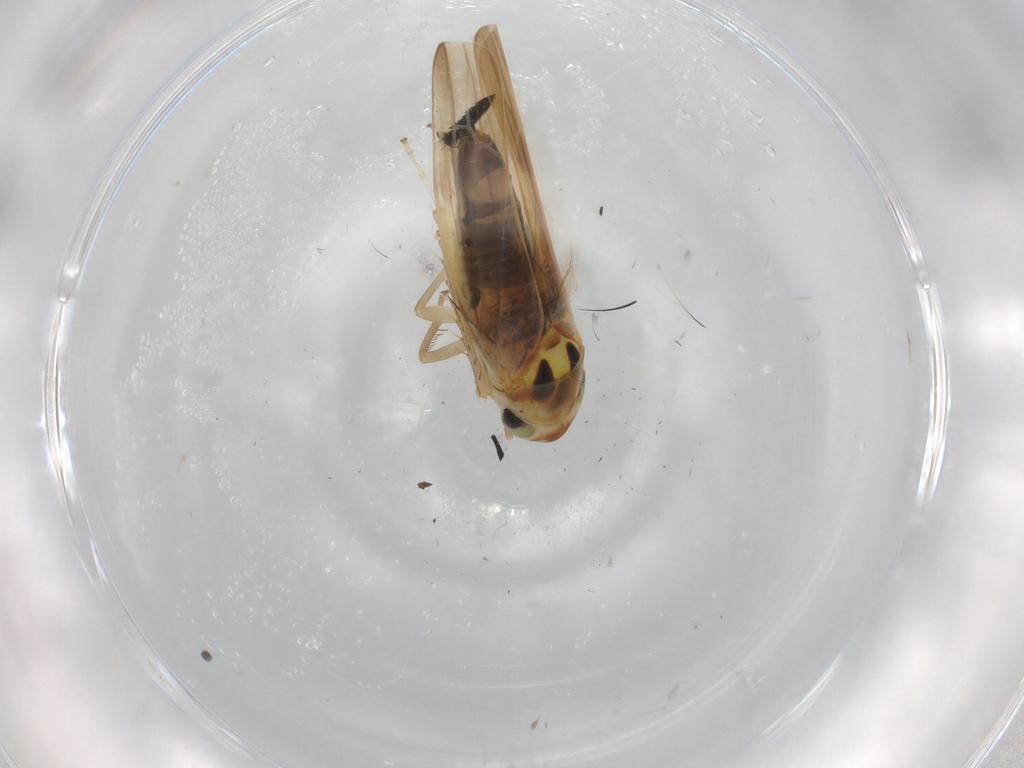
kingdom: Animalia
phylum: Arthropoda
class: Insecta
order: Hemiptera
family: Cicadellidae
